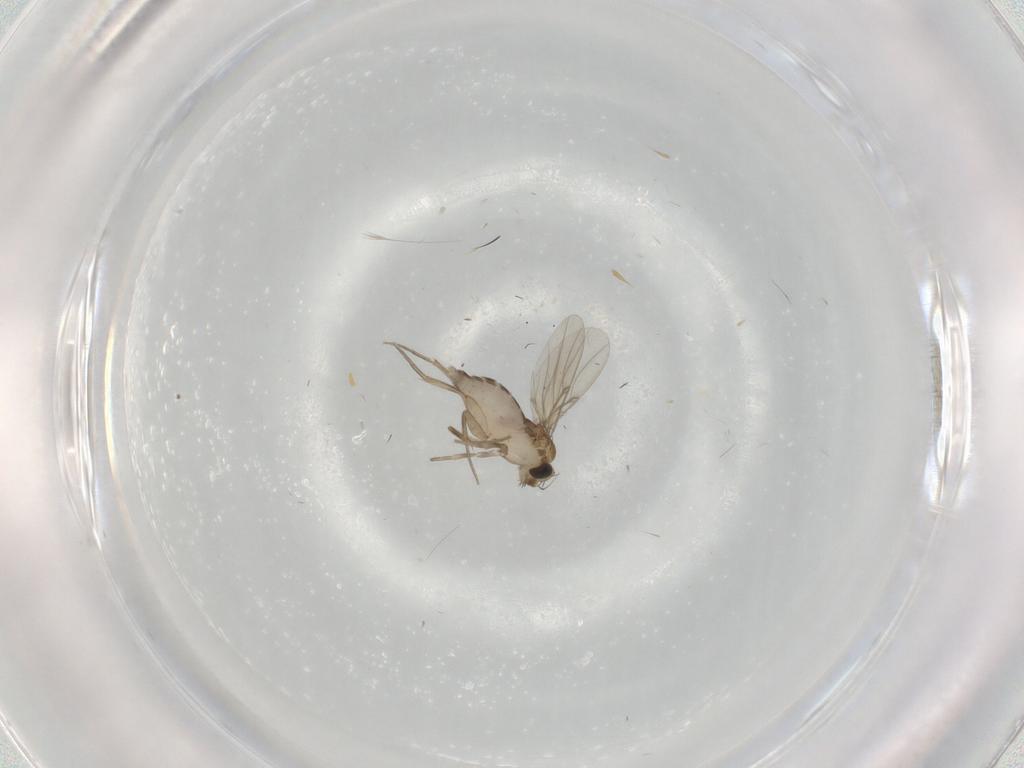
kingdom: Animalia
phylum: Arthropoda
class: Insecta
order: Diptera
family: Phoridae
